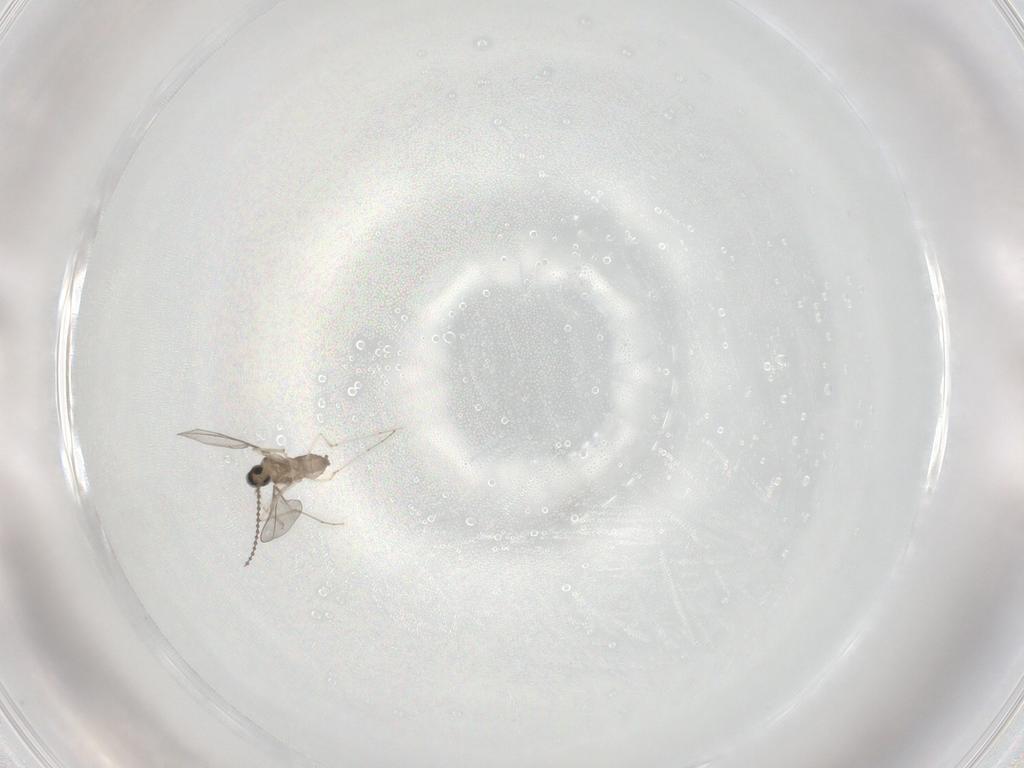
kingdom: Animalia
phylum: Arthropoda
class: Insecta
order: Diptera
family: Cecidomyiidae
